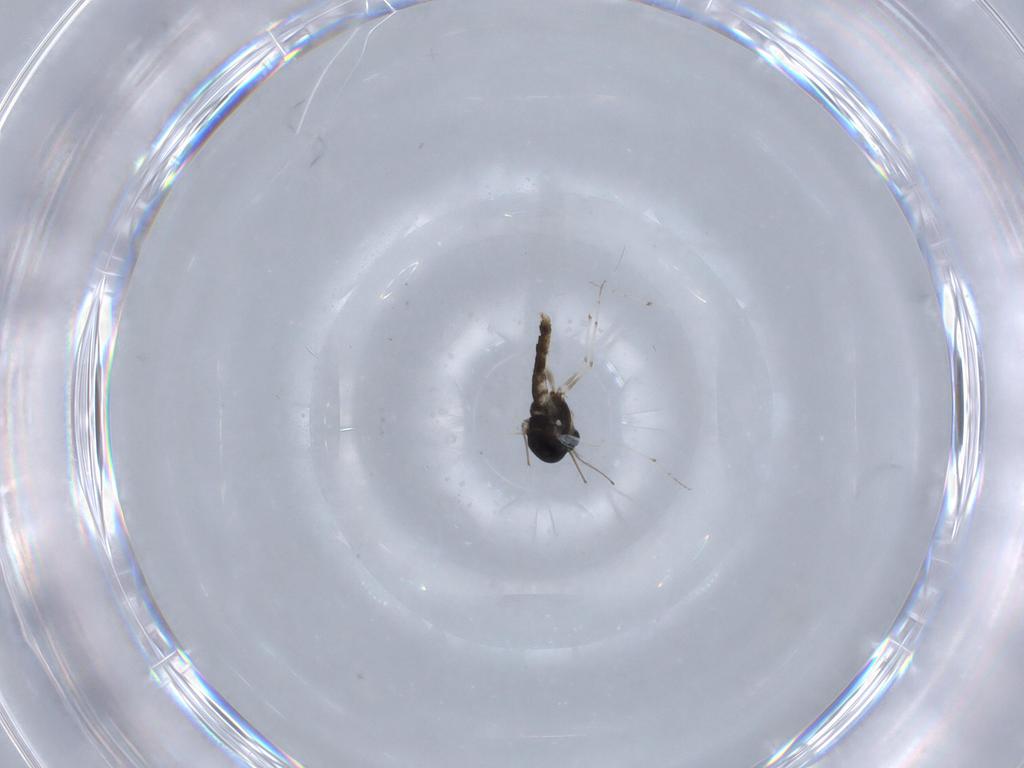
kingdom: Animalia
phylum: Arthropoda
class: Insecta
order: Diptera
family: Chironomidae
